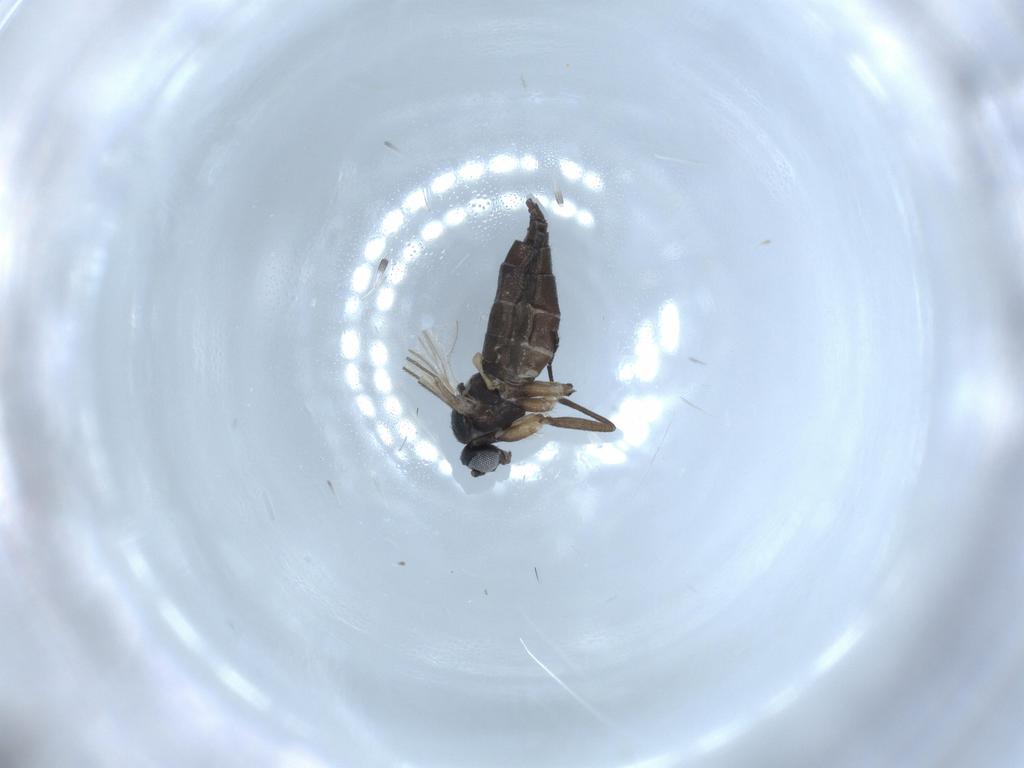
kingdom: Animalia
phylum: Arthropoda
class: Insecta
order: Diptera
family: Sciaridae
